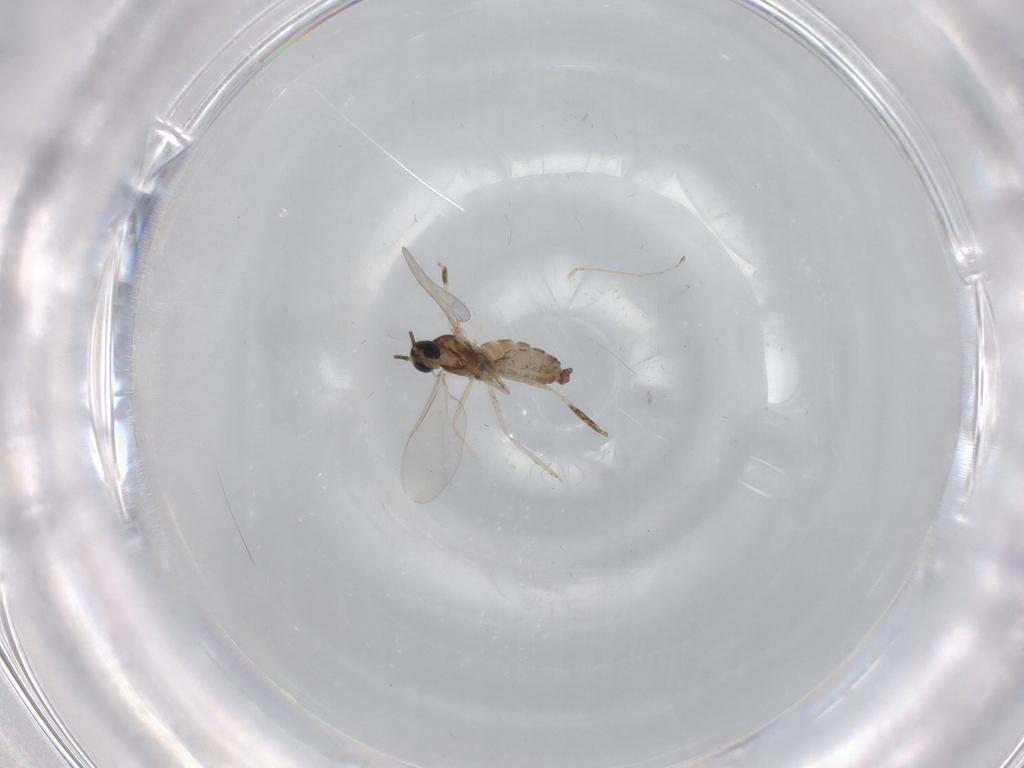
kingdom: Animalia
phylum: Arthropoda
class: Insecta
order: Diptera
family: Cecidomyiidae
